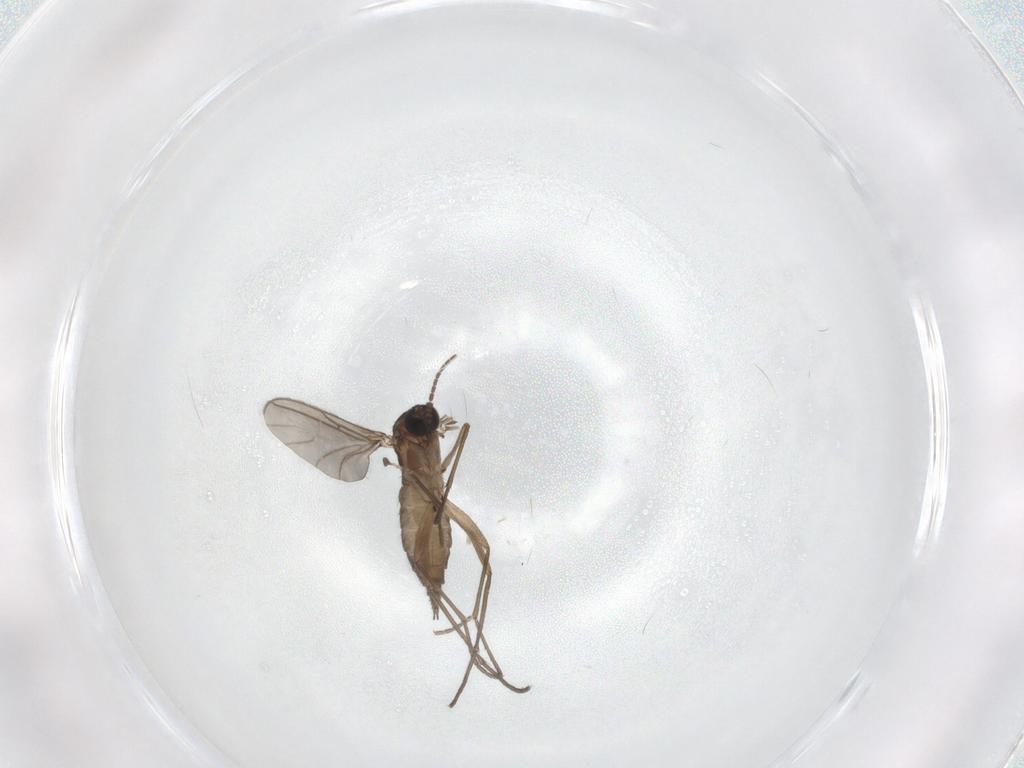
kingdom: Animalia
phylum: Arthropoda
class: Insecta
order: Diptera
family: Sciaridae
